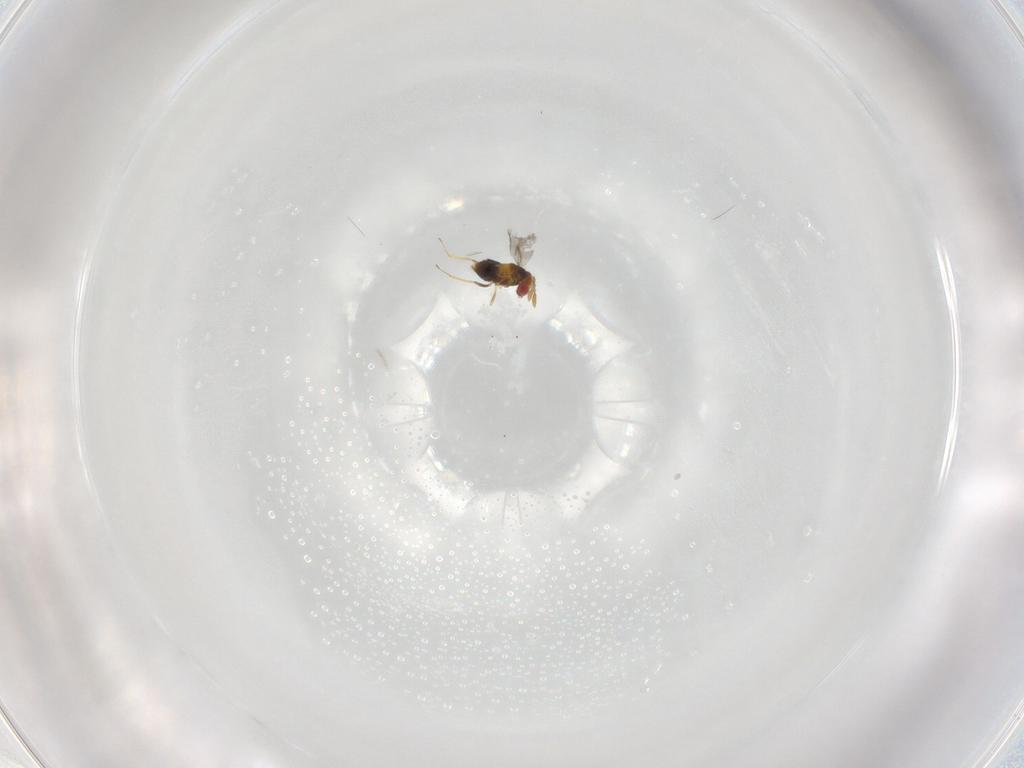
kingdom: Animalia
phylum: Arthropoda
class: Insecta
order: Hymenoptera
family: Trichogrammatidae
